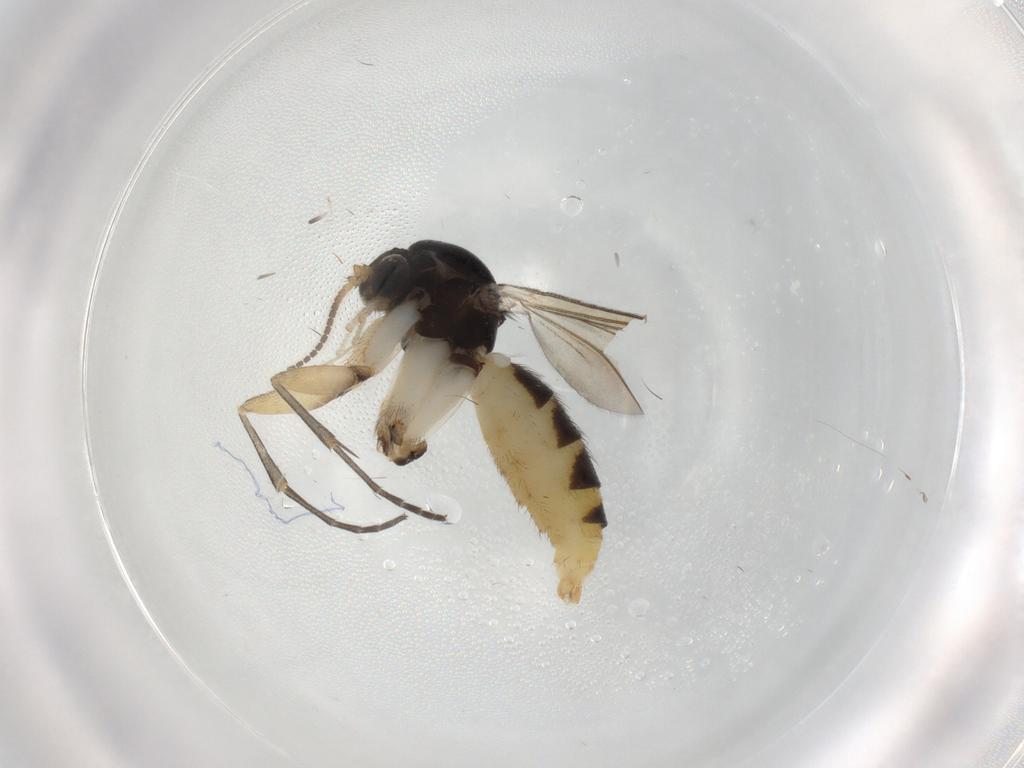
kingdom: Animalia
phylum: Arthropoda
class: Insecta
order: Diptera
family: Mycetophilidae
